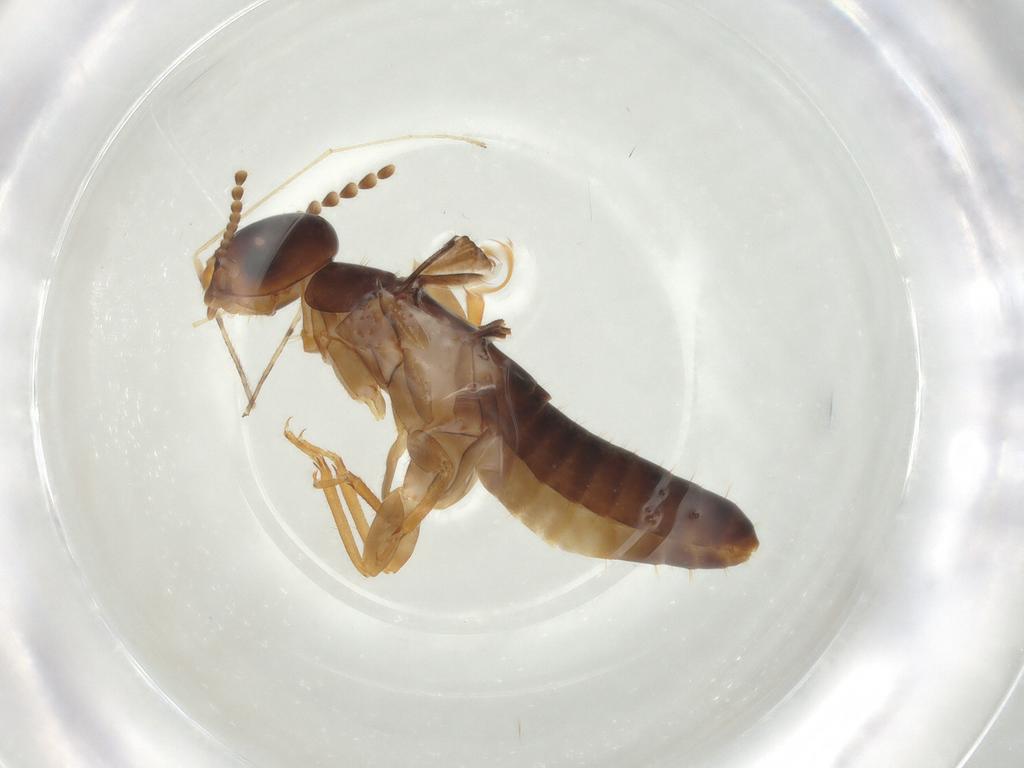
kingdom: Animalia
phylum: Arthropoda
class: Insecta
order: Blattodea
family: Kalotermitidae
